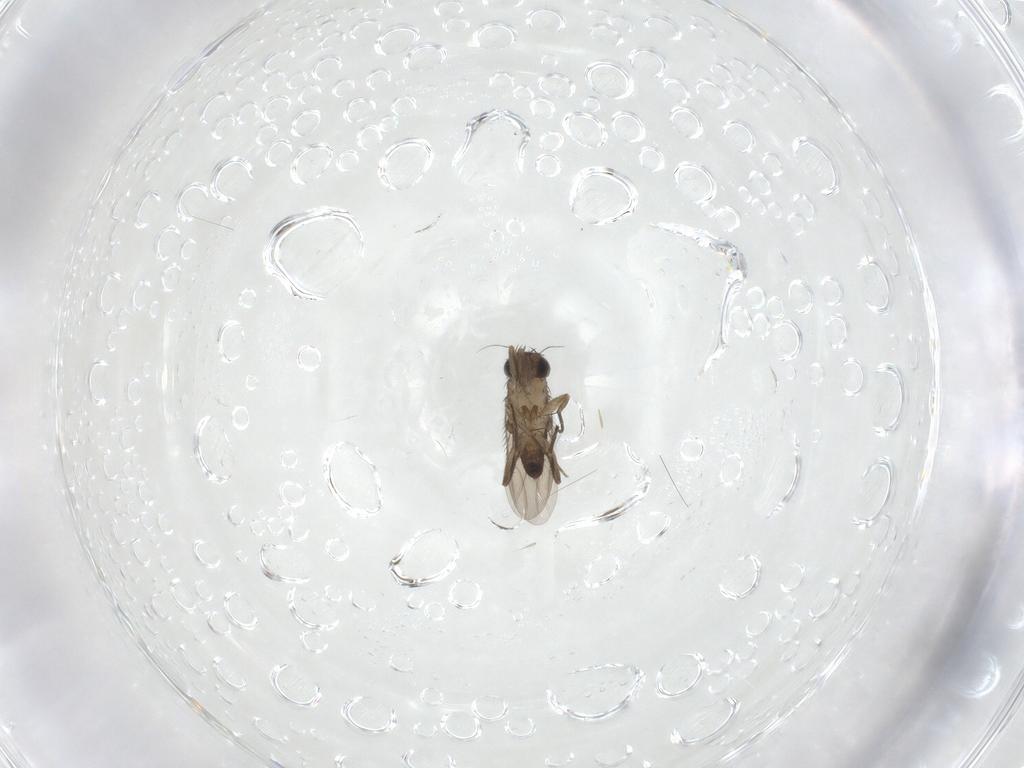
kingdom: Animalia
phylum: Arthropoda
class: Insecta
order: Diptera
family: Phoridae
